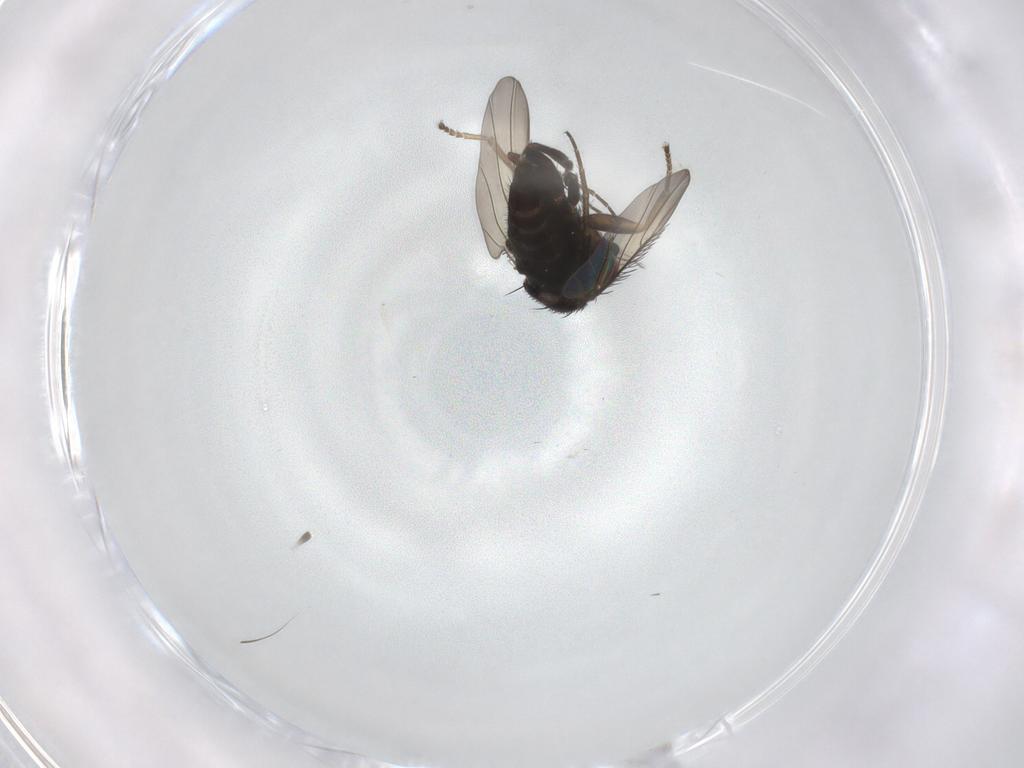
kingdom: Animalia
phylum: Arthropoda
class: Insecta
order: Diptera
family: Phoridae
